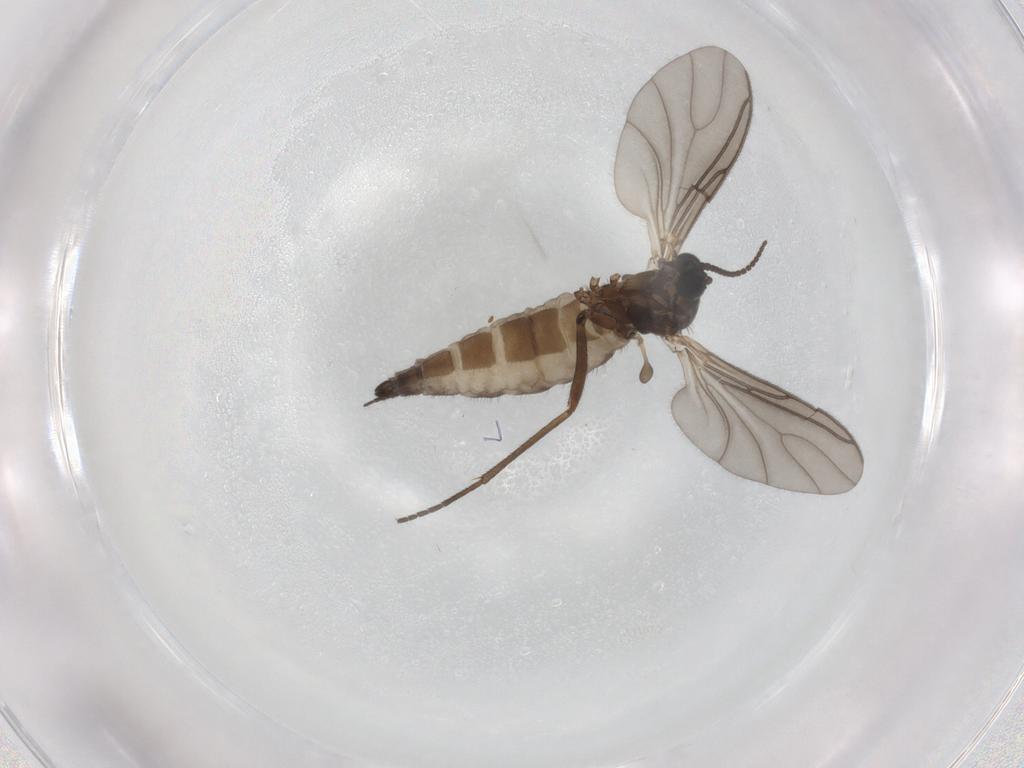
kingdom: Animalia
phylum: Arthropoda
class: Insecta
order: Diptera
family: Sciaridae
